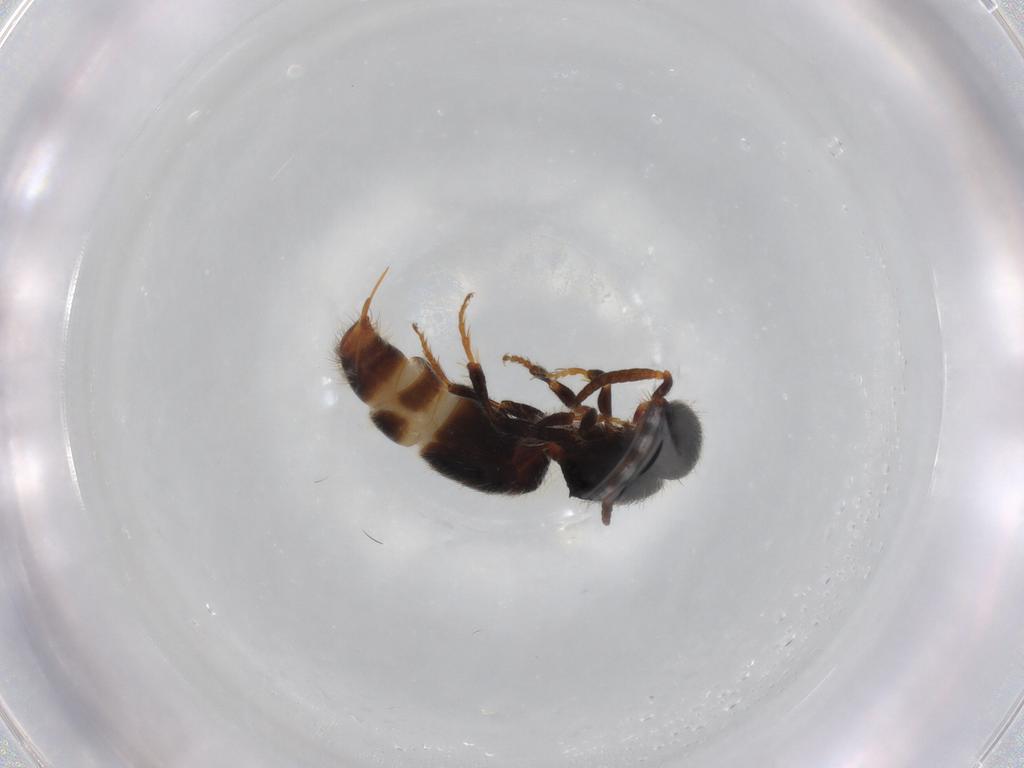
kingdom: Animalia
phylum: Arthropoda
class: Insecta
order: Hymenoptera
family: Mutillidae
